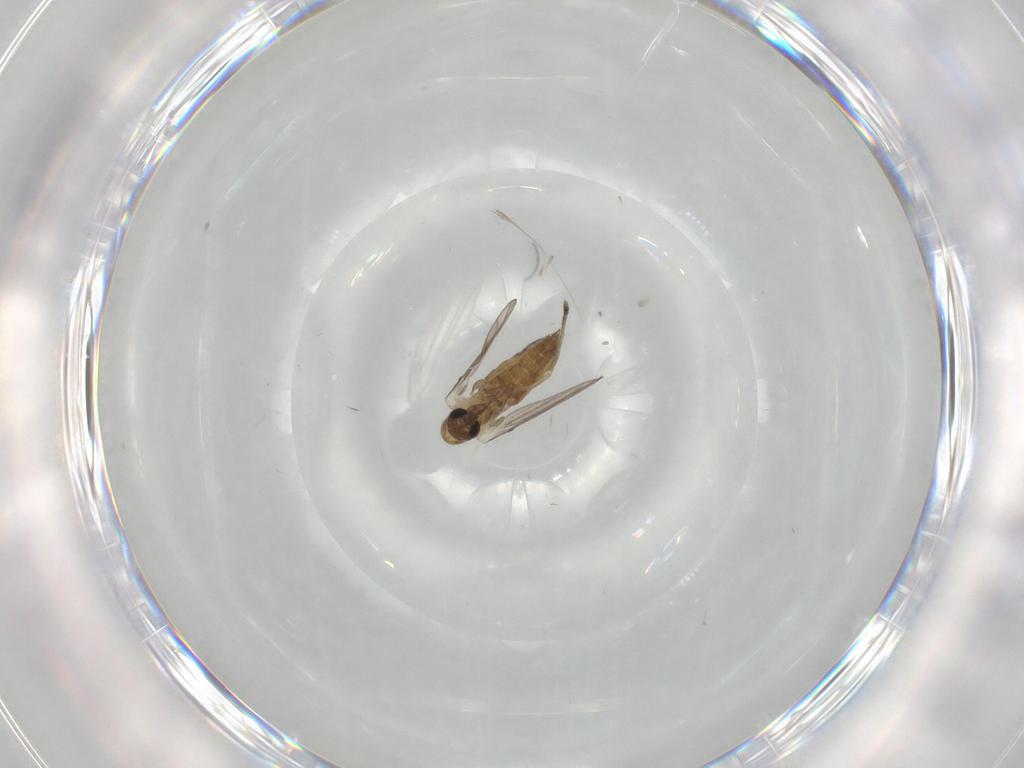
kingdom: Animalia
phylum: Arthropoda
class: Insecta
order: Diptera
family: Psychodidae
